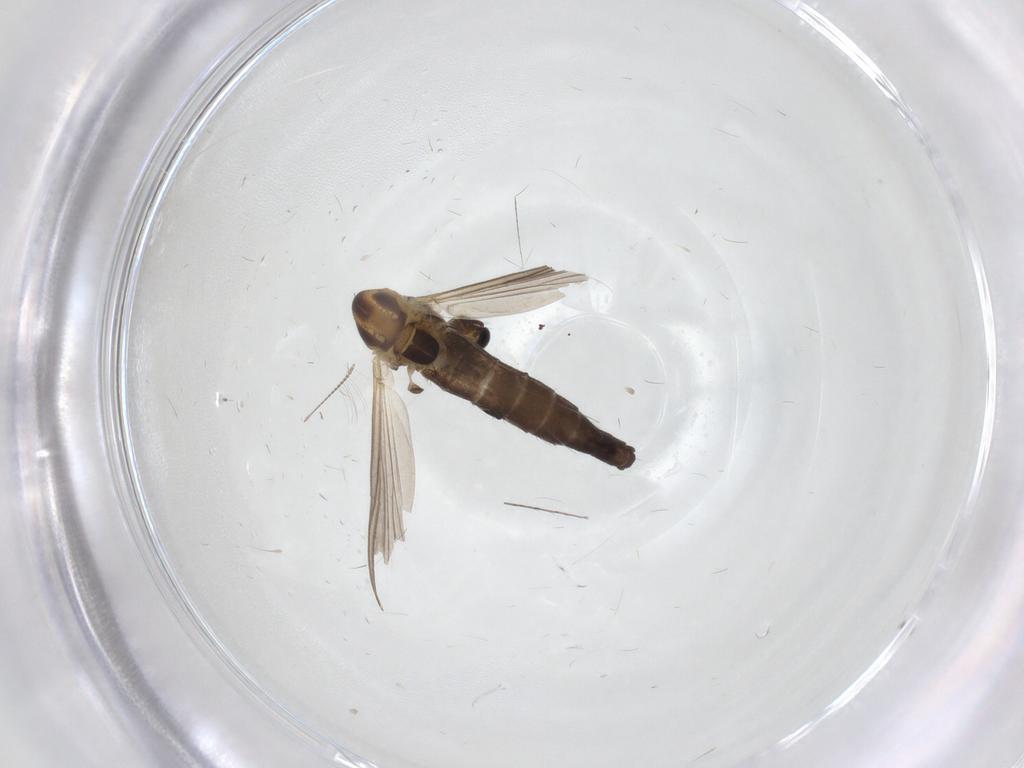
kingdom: Animalia
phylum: Arthropoda
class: Insecta
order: Diptera
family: Chironomidae
